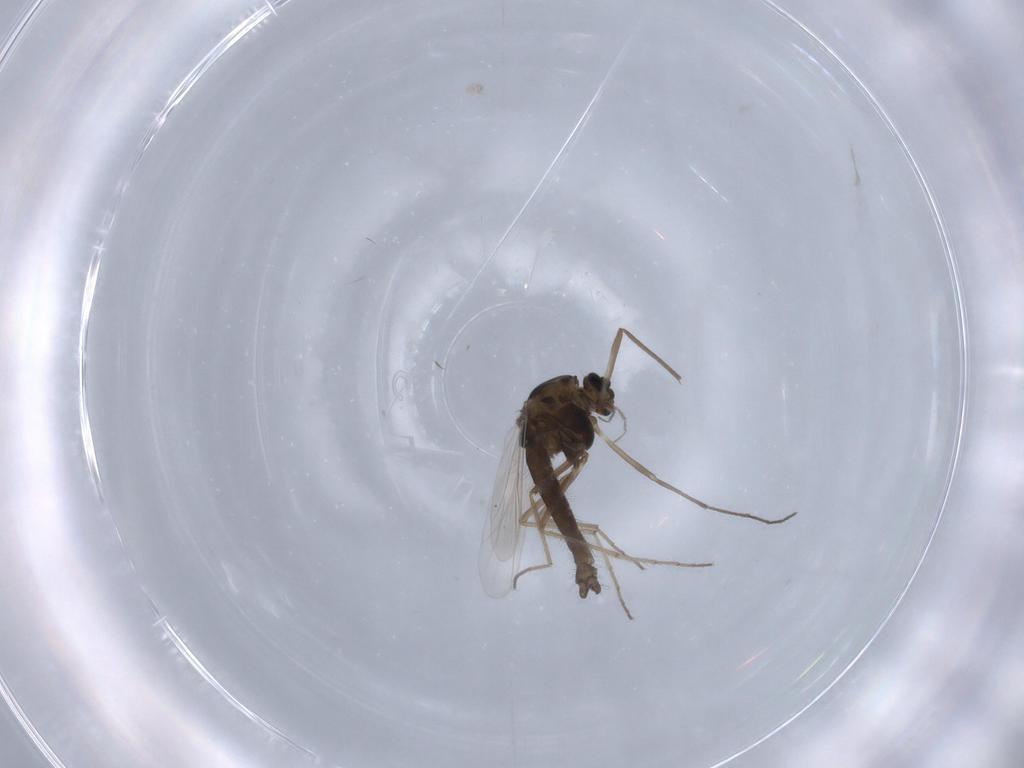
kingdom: Animalia
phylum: Arthropoda
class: Insecta
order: Diptera
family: Chironomidae
